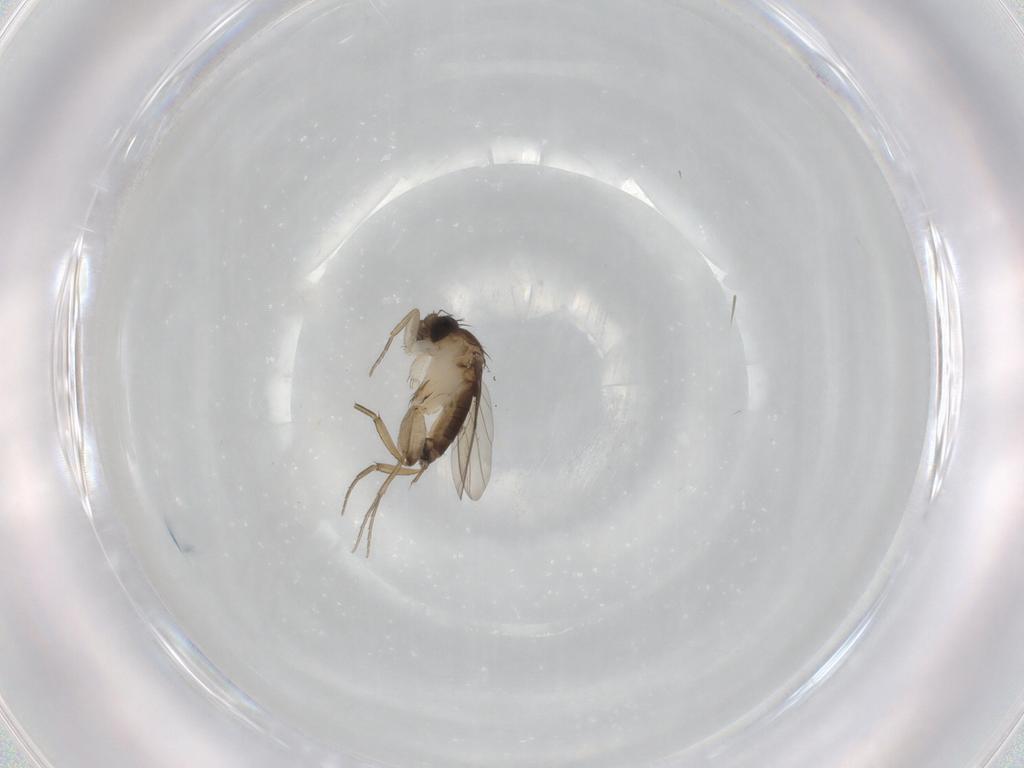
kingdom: Animalia
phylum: Arthropoda
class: Insecta
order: Diptera
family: Phoridae
